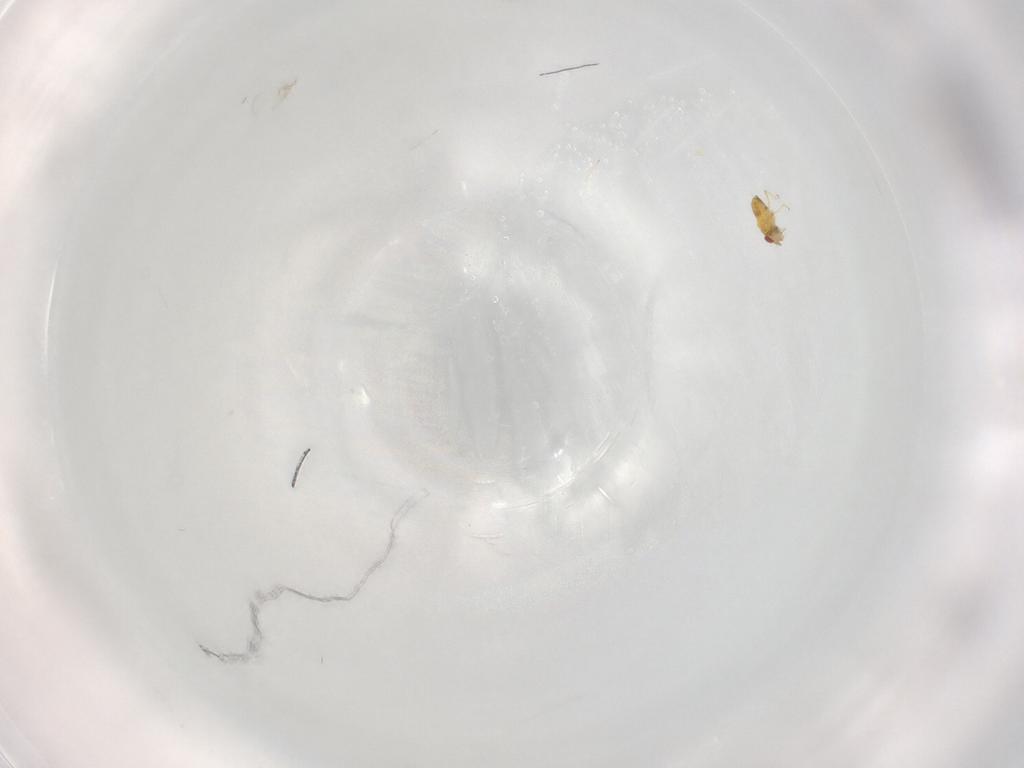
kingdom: Animalia
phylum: Arthropoda
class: Insecta
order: Hymenoptera
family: Trichogrammatidae
